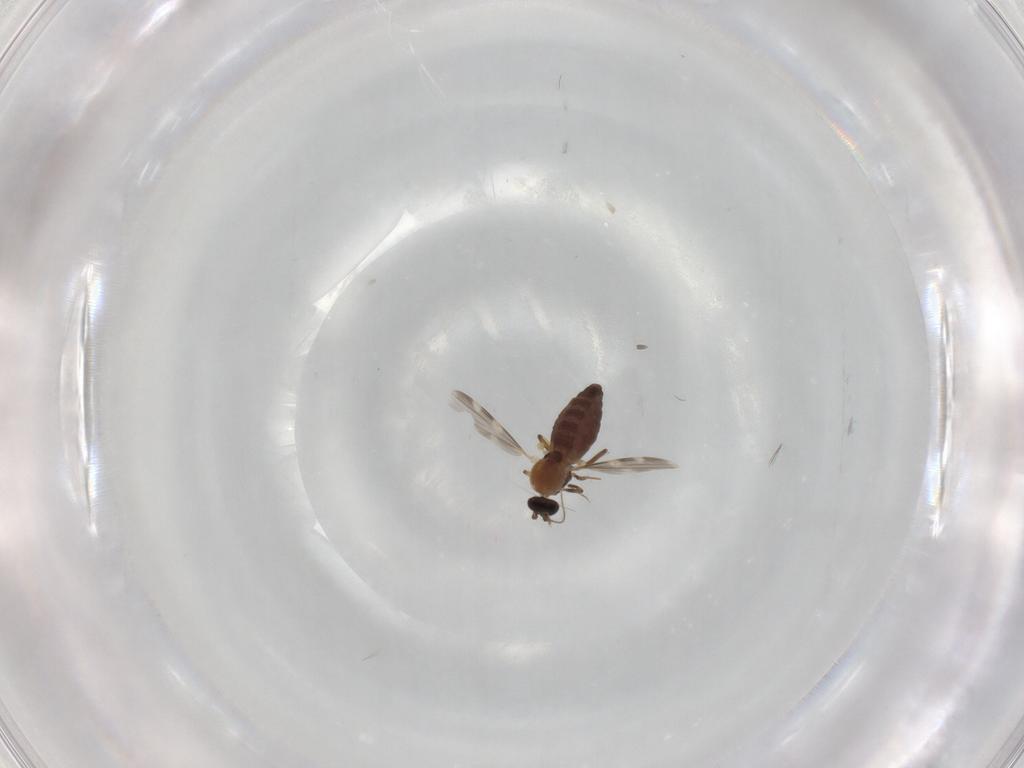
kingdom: Animalia
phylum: Arthropoda
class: Insecta
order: Diptera
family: Ceratopogonidae
